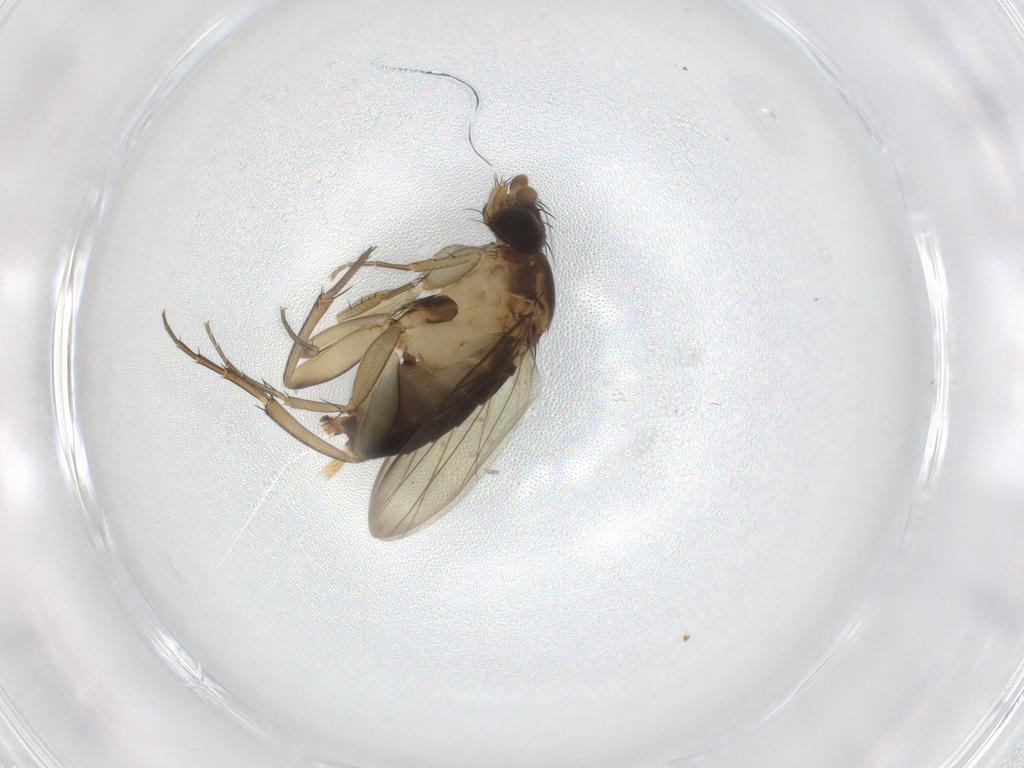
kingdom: Animalia
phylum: Arthropoda
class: Insecta
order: Diptera
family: Phoridae
